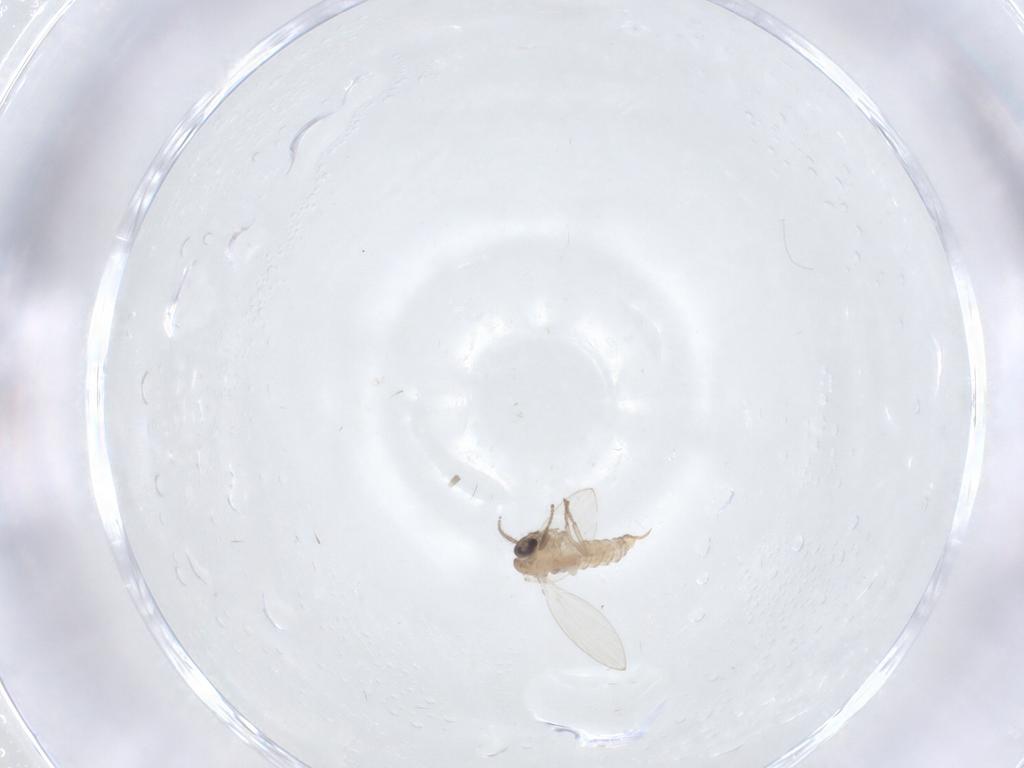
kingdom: Animalia
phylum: Arthropoda
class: Insecta
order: Diptera
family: Psychodidae
